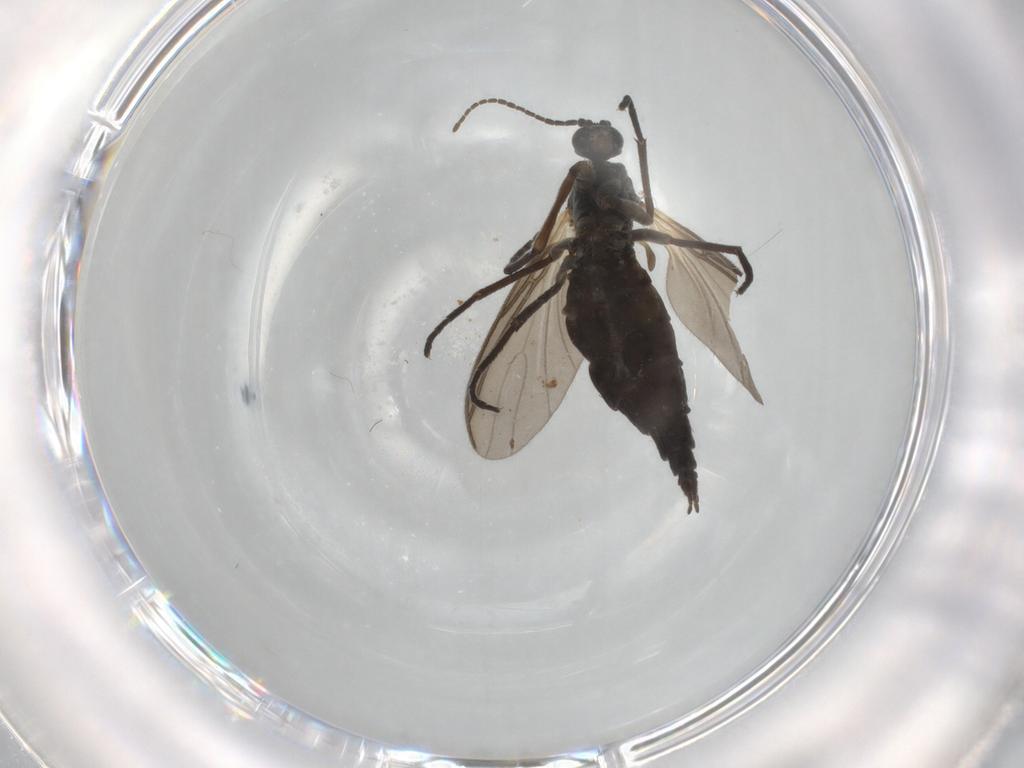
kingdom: Animalia
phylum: Arthropoda
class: Insecta
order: Diptera
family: Sciaridae
